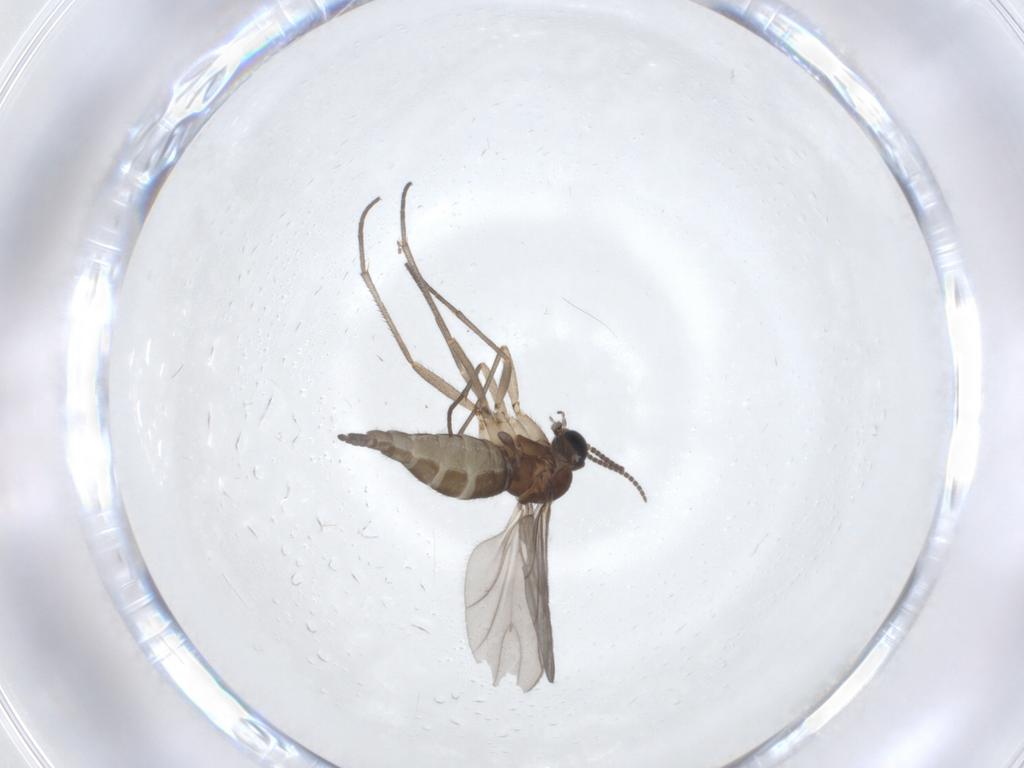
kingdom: Animalia
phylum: Arthropoda
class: Insecta
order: Diptera
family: Sciaridae
